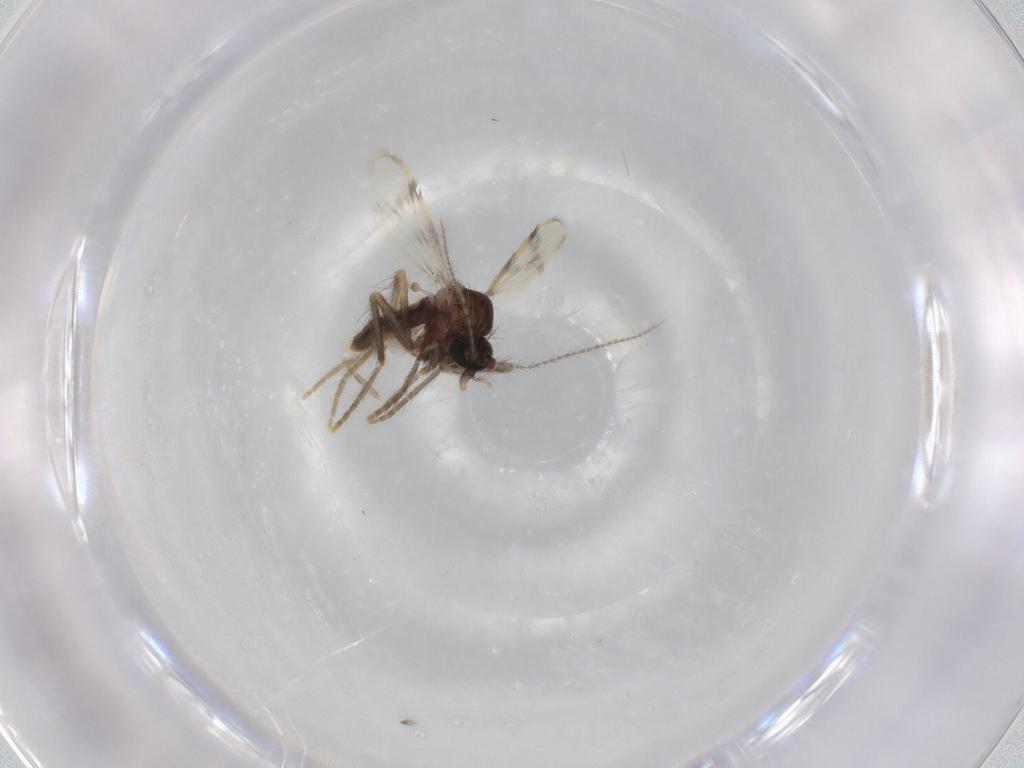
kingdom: Animalia
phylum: Arthropoda
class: Insecta
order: Diptera
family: Corethrellidae
